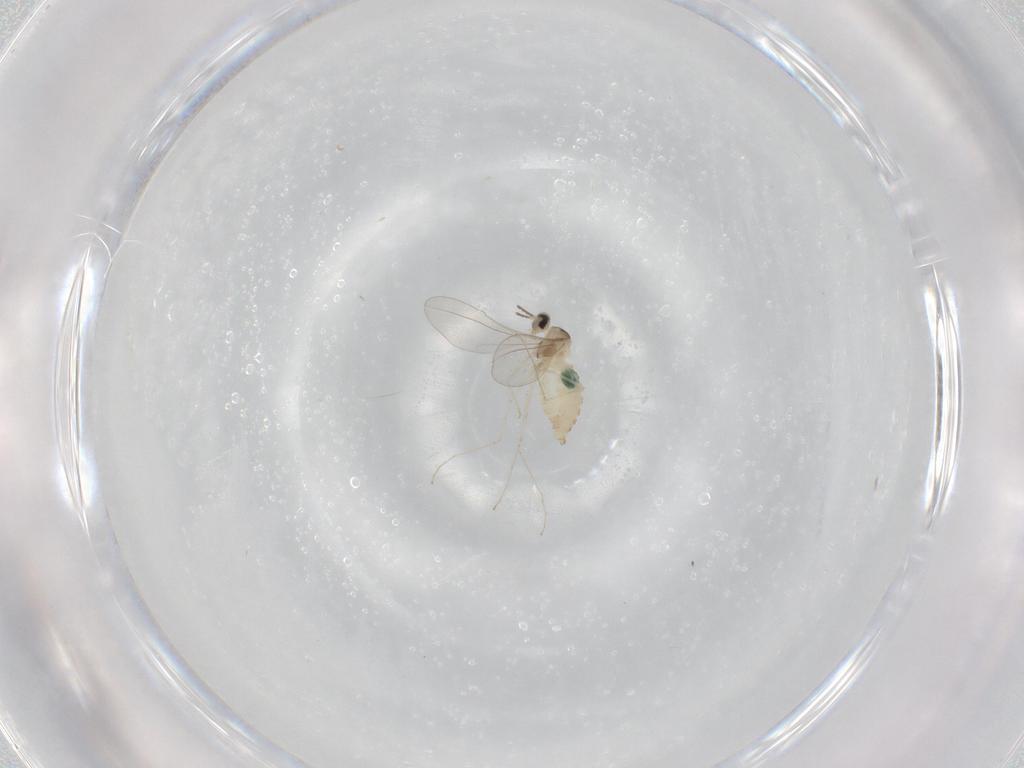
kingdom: Animalia
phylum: Arthropoda
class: Insecta
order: Diptera
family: Cecidomyiidae
